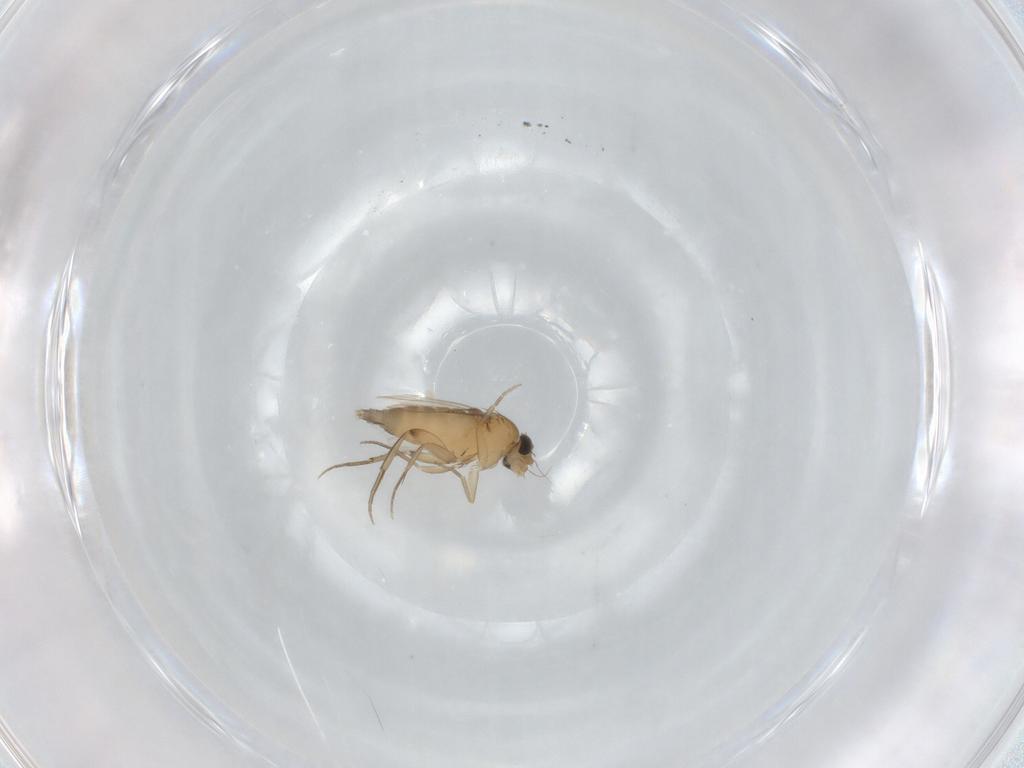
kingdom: Animalia
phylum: Arthropoda
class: Insecta
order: Diptera
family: Phoridae
